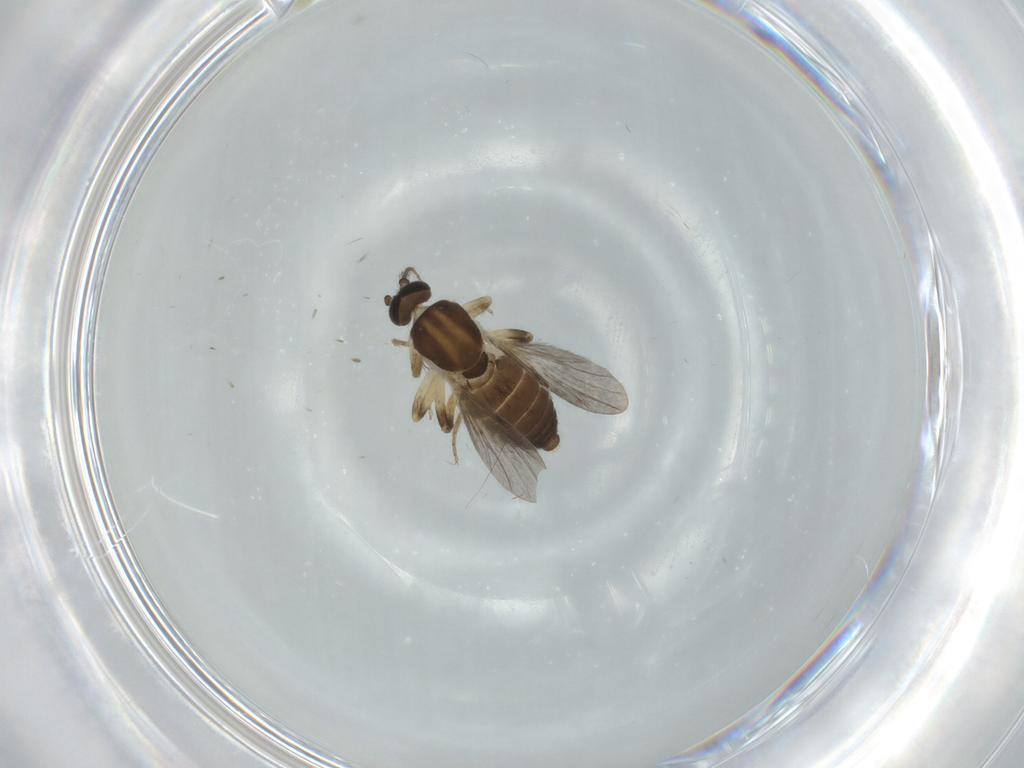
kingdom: Animalia
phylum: Arthropoda
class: Insecta
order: Diptera
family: Ceratopogonidae
